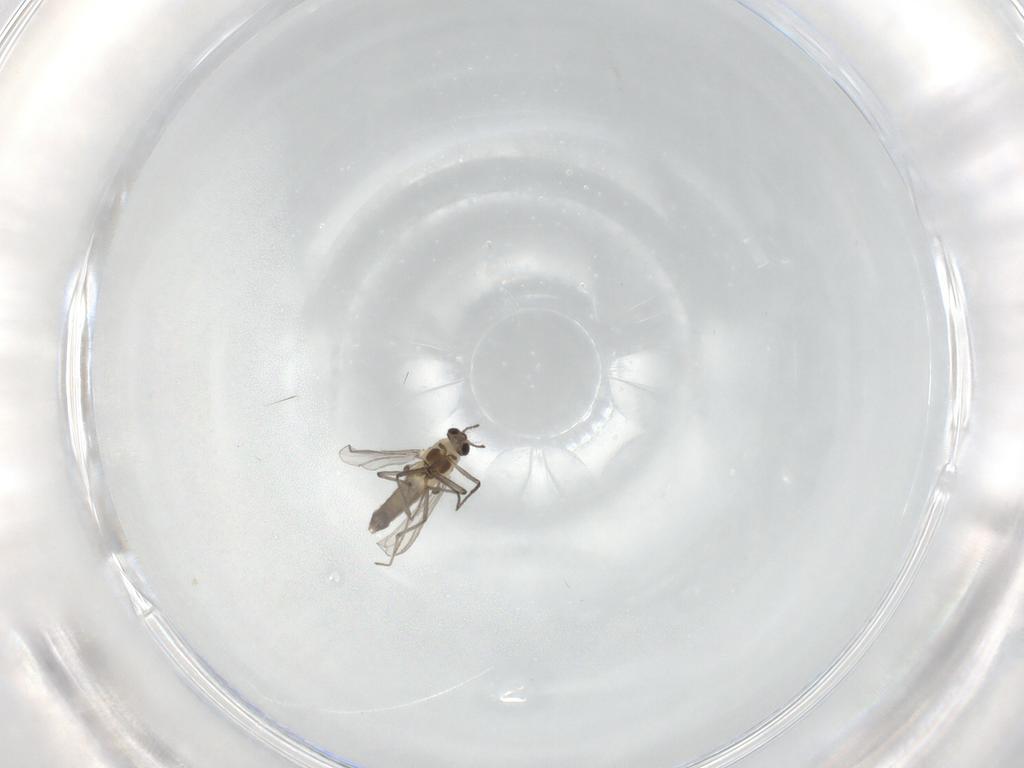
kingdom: Animalia
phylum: Arthropoda
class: Insecta
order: Diptera
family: Chironomidae
